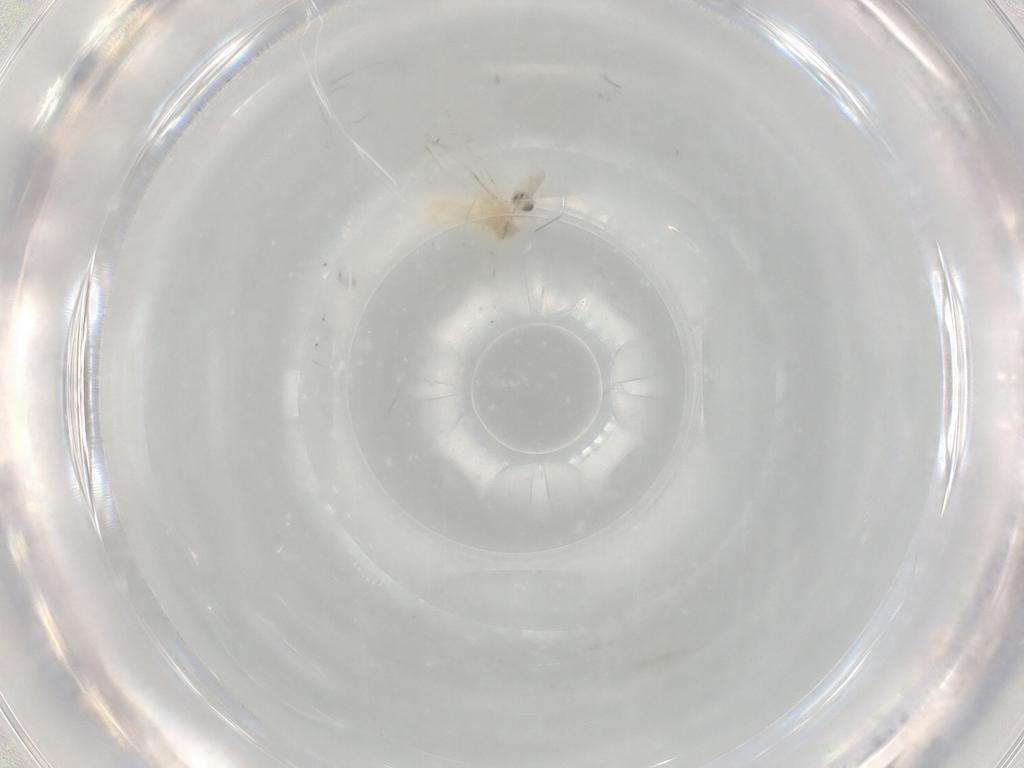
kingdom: Animalia
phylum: Arthropoda
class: Insecta
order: Diptera
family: Cecidomyiidae
